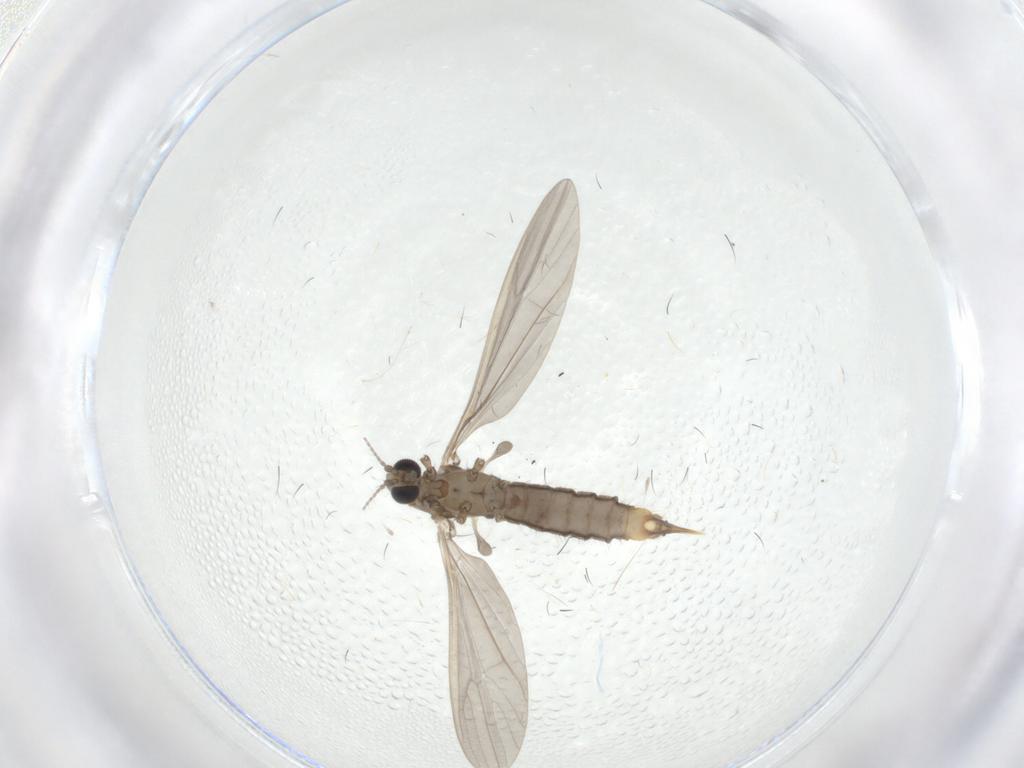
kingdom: Animalia
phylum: Arthropoda
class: Insecta
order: Diptera
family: Limoniidae
